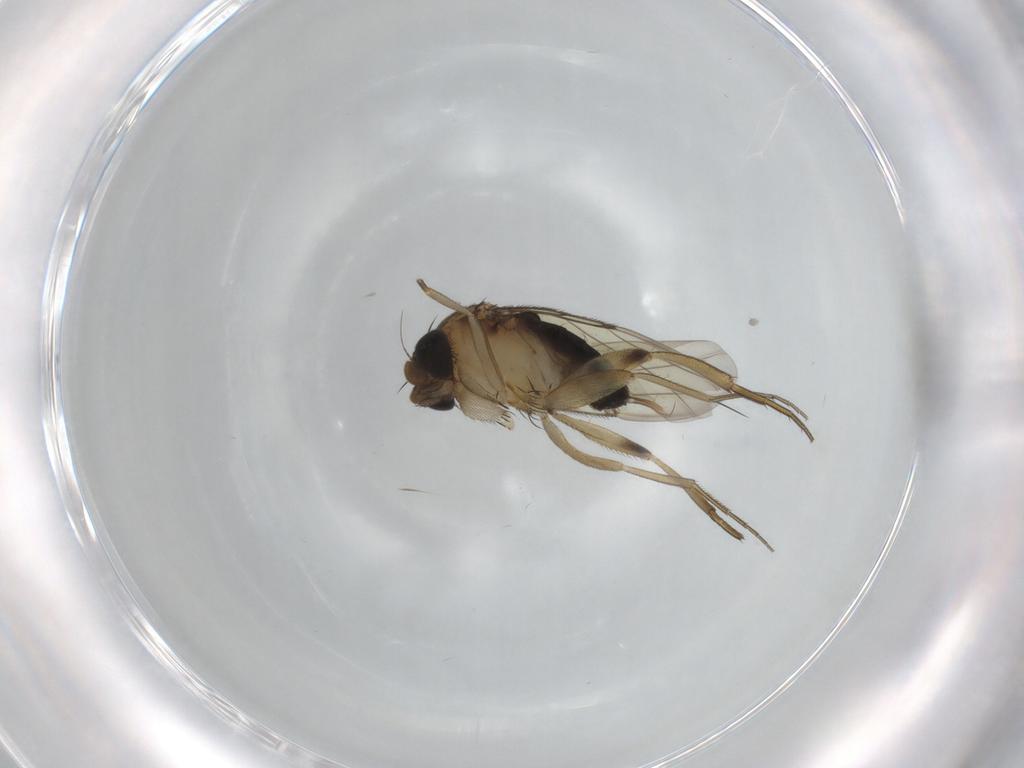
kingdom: Animalia
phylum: Arthropoda
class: Insecta
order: Diptera
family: Phoridae
